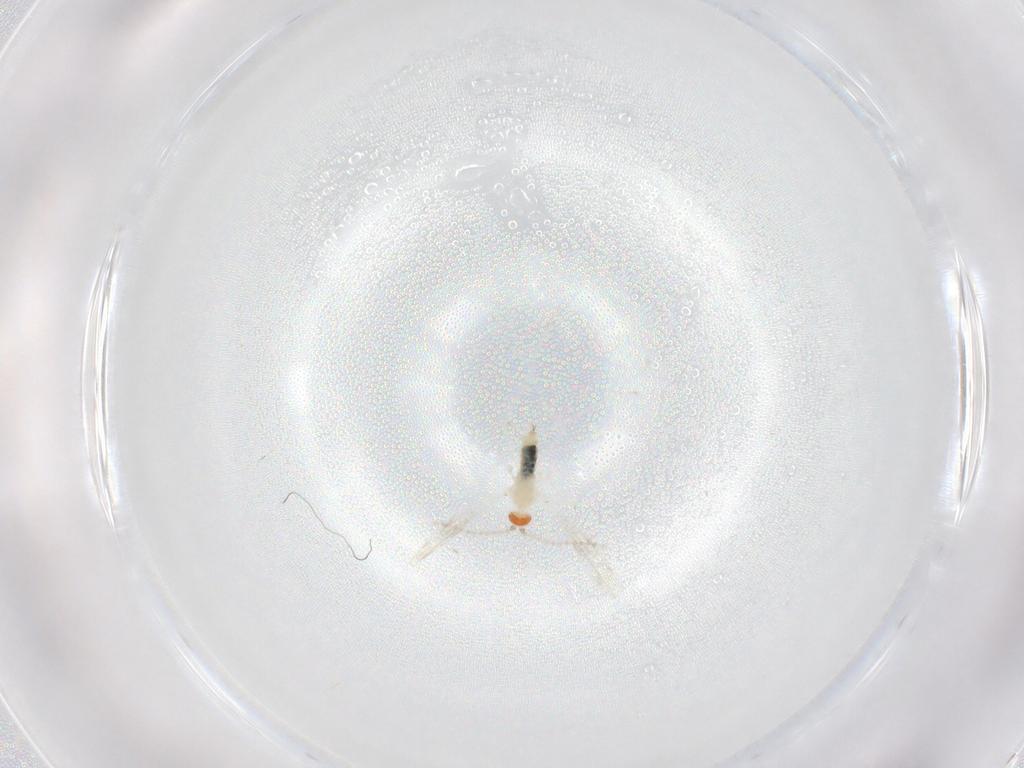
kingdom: Animalia
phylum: Arthropoda
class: Insecta
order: Diptera
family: Cecidomyiidae
